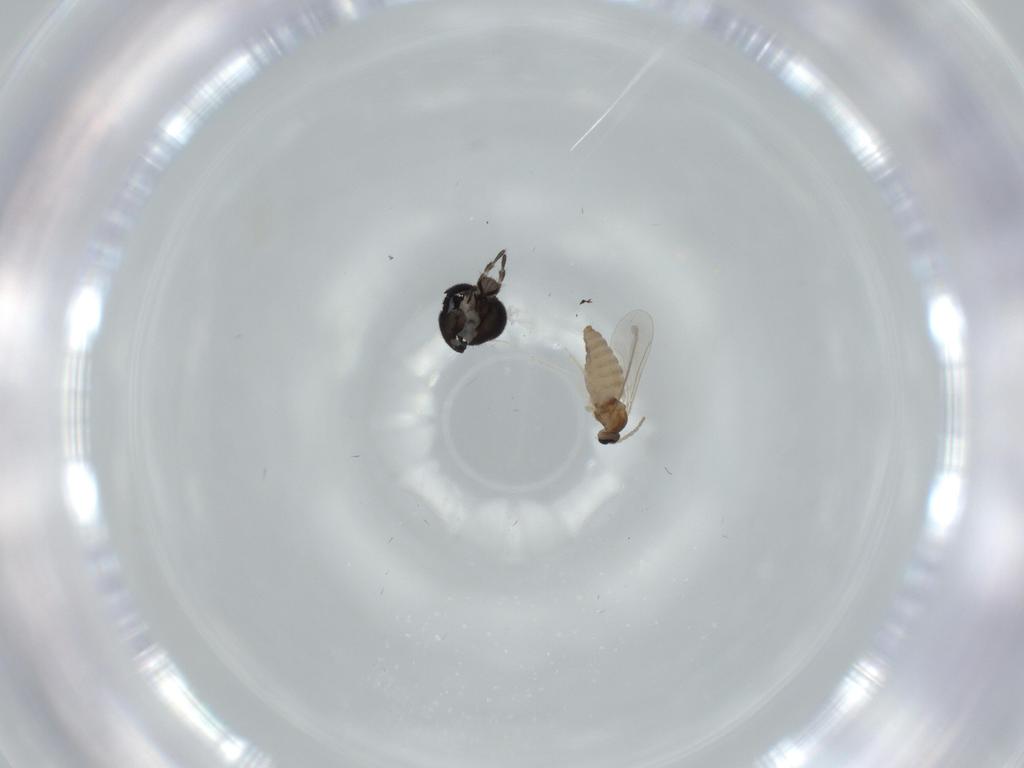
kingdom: Animalia
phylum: Arthropoda
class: Insecta
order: Diptera
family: Sciaridae
